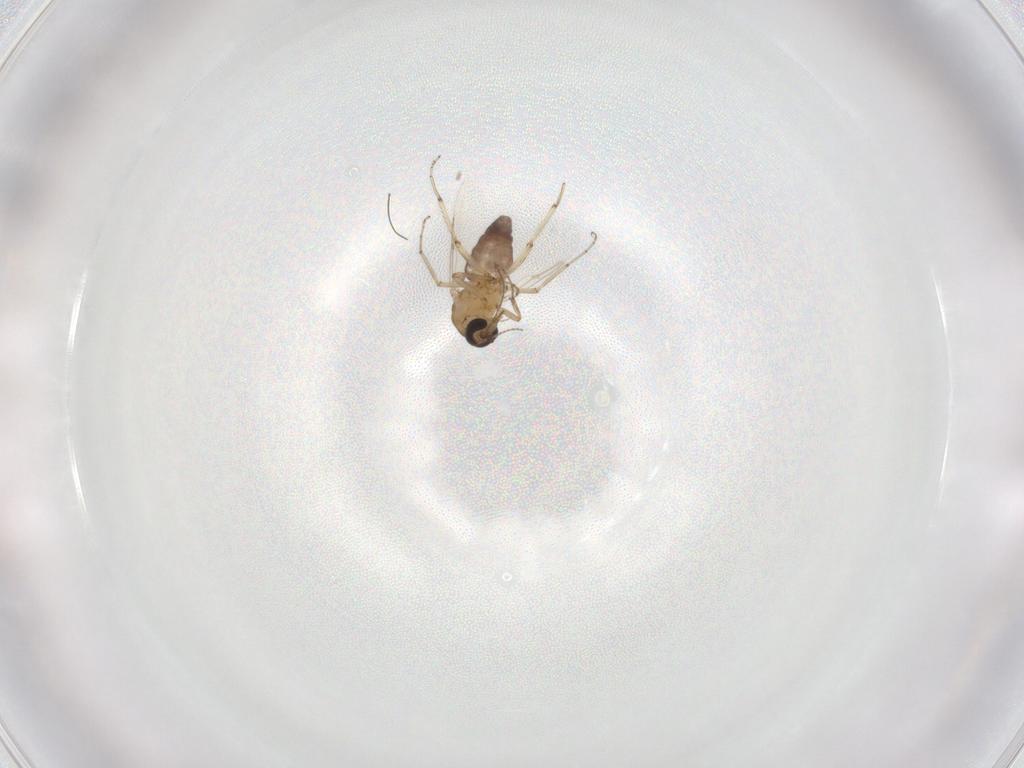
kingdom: Animalia
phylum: Arthropoda
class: Insecta
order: Diptera
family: Ceratopogonidae
